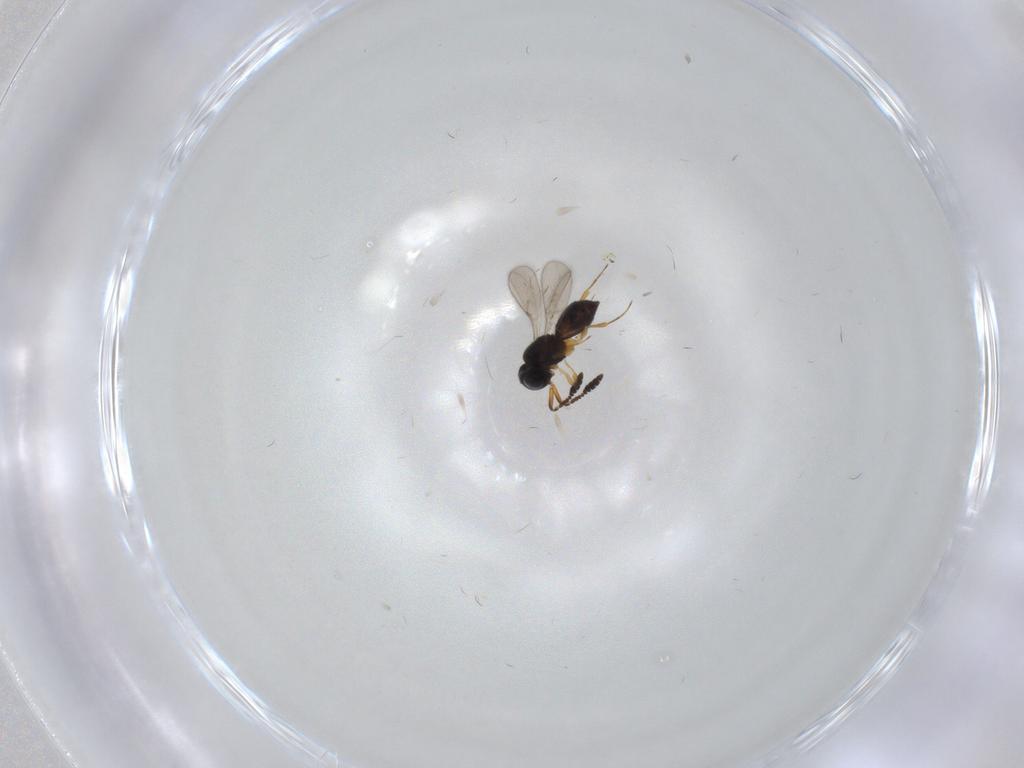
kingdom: Animalia
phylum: Arthropoda
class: Insecta
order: Hymenoptera
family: Scelionidae
